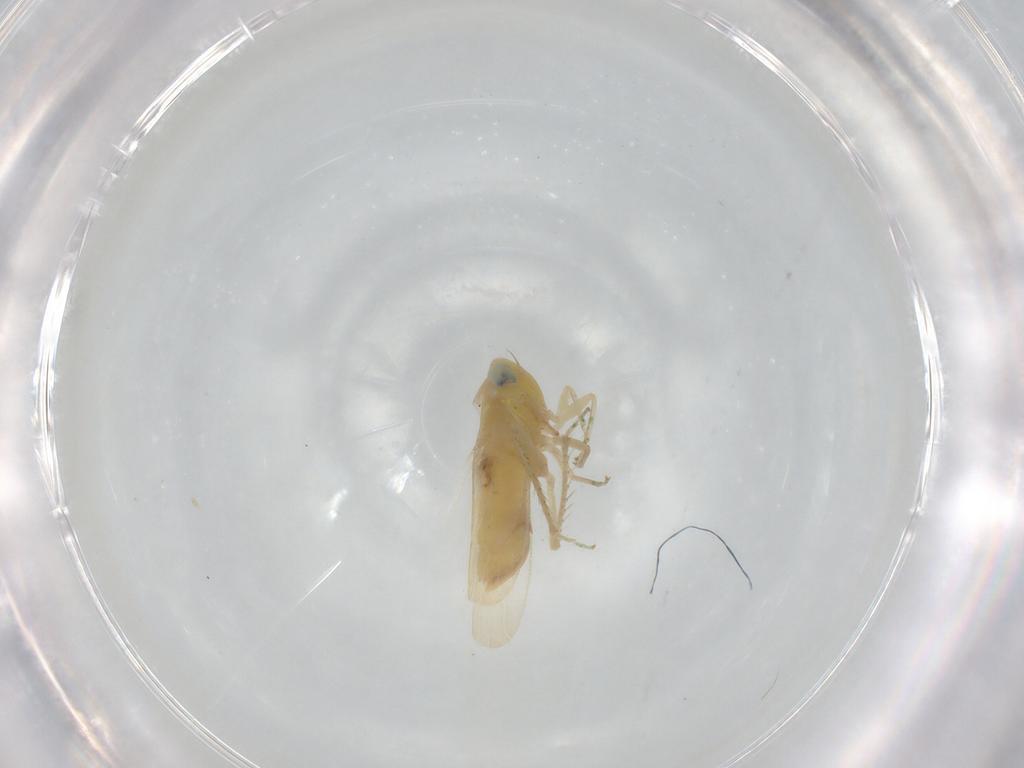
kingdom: Animalia
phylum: Arthropoda
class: Insecta
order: Hemiptera
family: Cicadellidae
